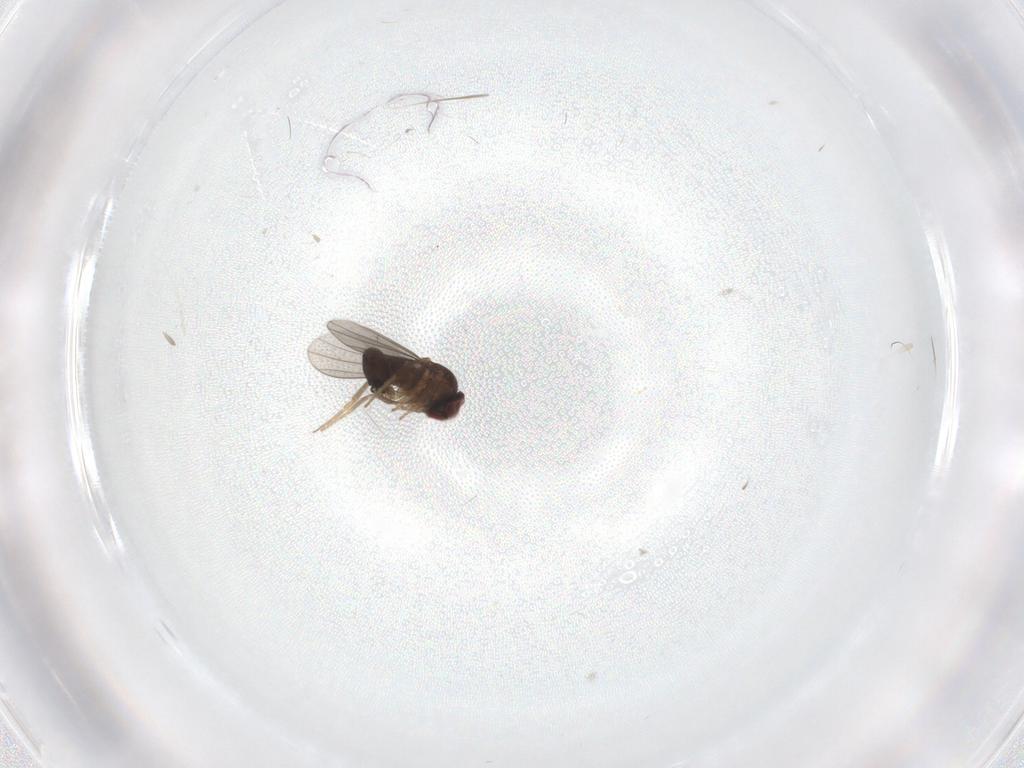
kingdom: Animalia
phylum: Arthropoda
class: Insecta
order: Diptera
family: Dolichopodidae
